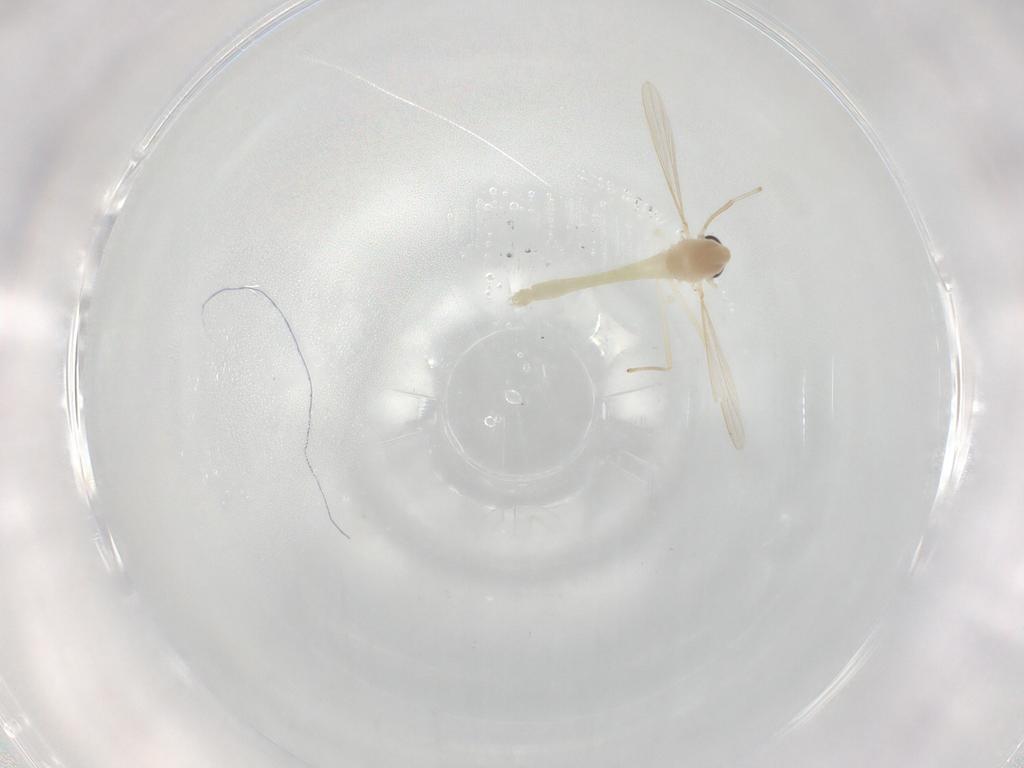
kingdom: Animalia
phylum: Arthropoda
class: Insecta
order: Diptera
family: Chironomidae
